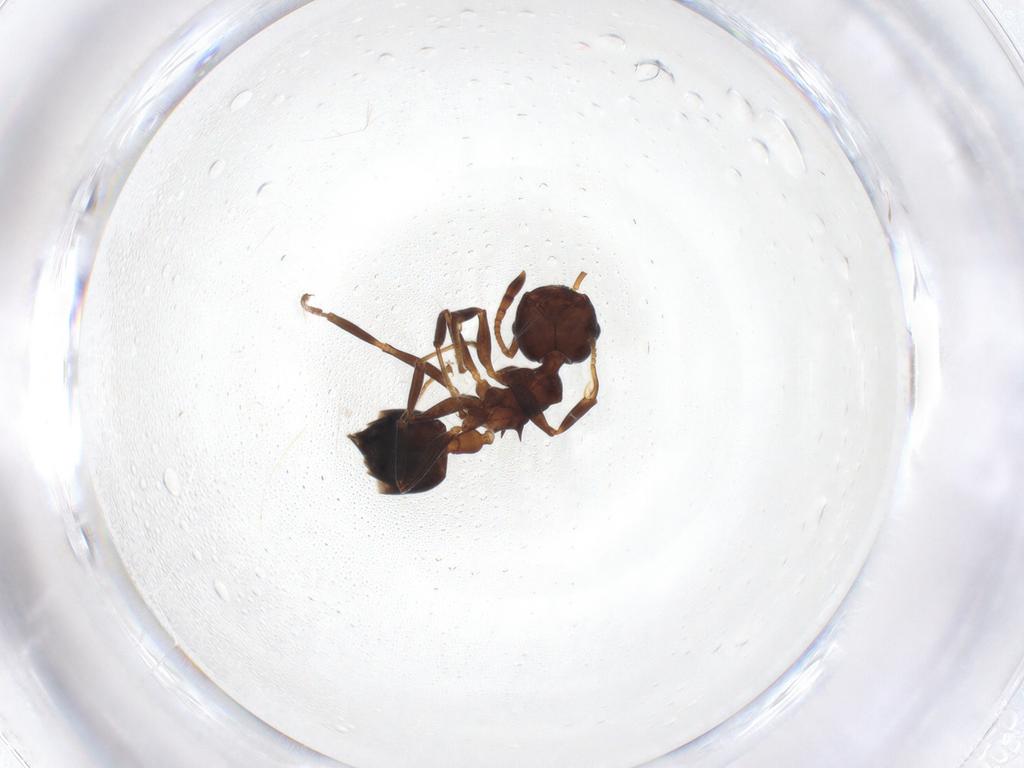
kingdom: Animalia
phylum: Arthropoda
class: Insecta
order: Hymenoptera
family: Formicidae
